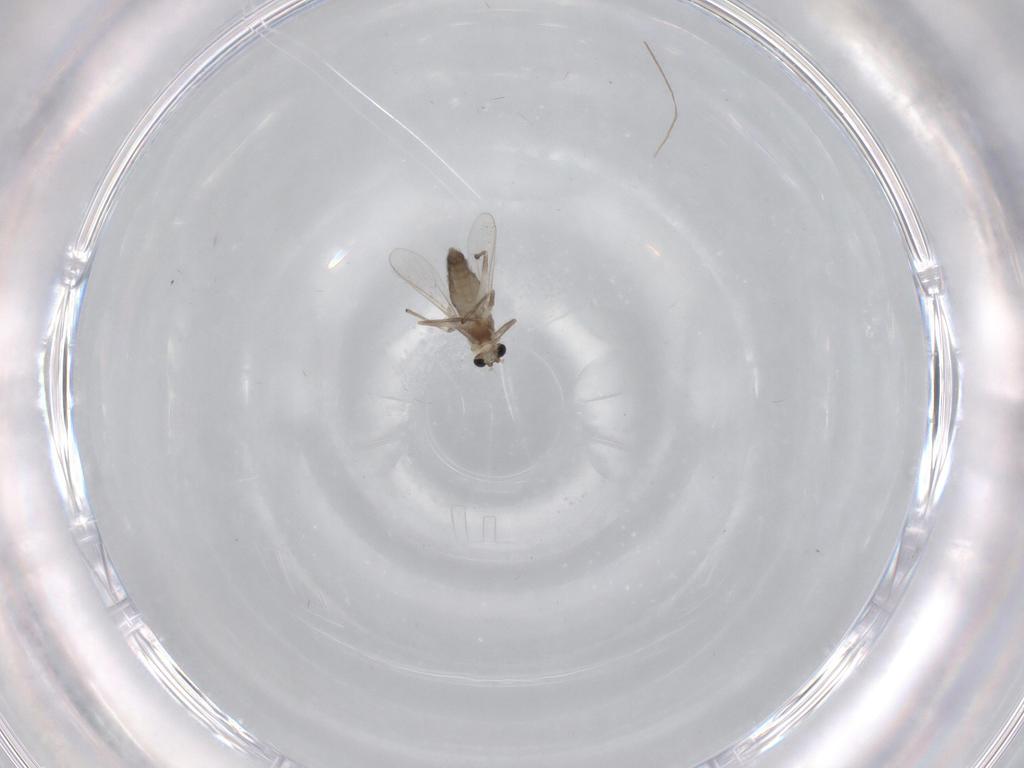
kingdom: Animalia
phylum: Arthropoda
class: Insecta
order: Diptera
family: Chironomidae
